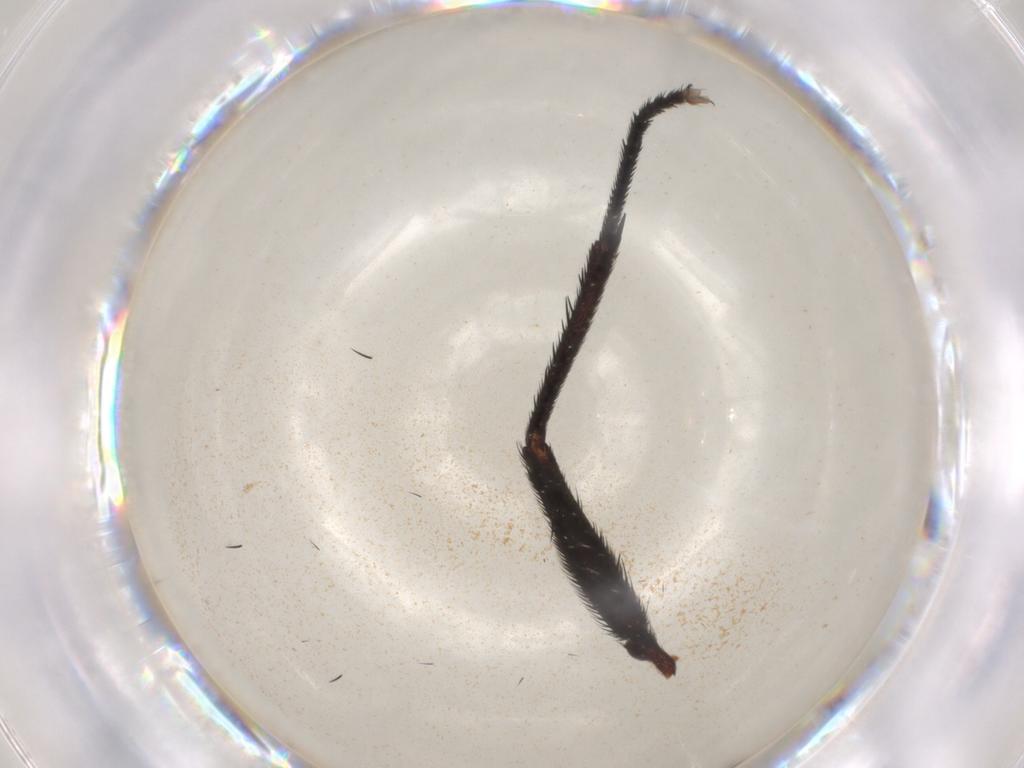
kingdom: Animalia
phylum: Arthropoda
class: Insecta
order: Diptera
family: Muscidae
